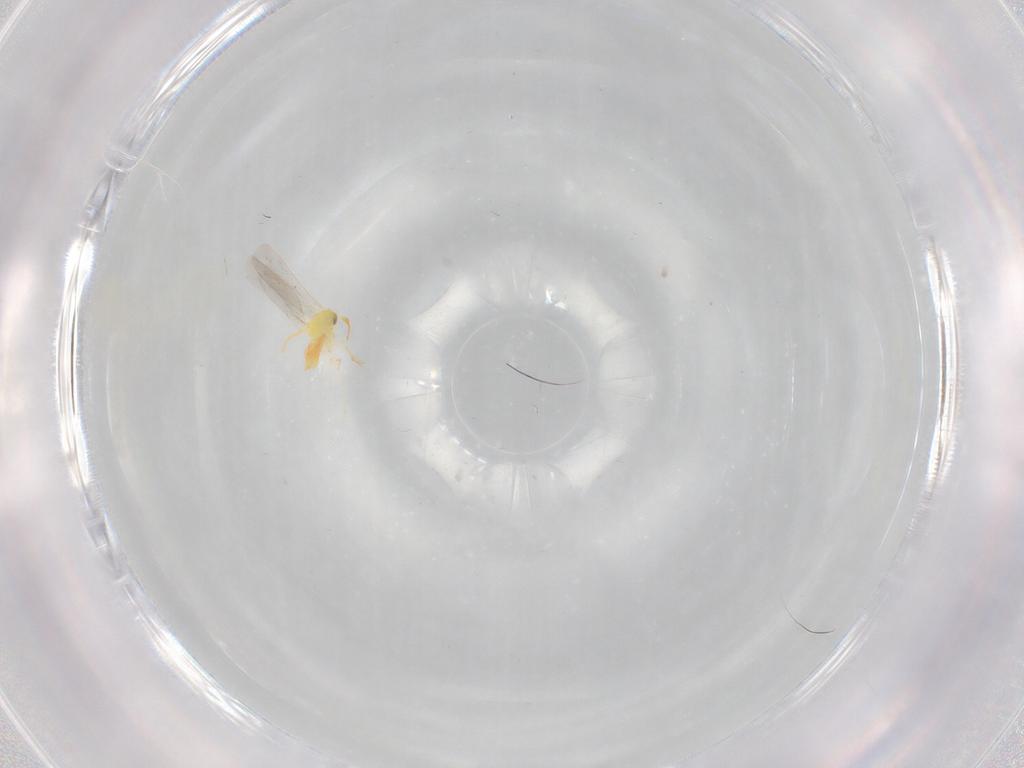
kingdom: Animalia
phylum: Arthropoda
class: Insecta
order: Hemiptera
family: Aleyrodidae
